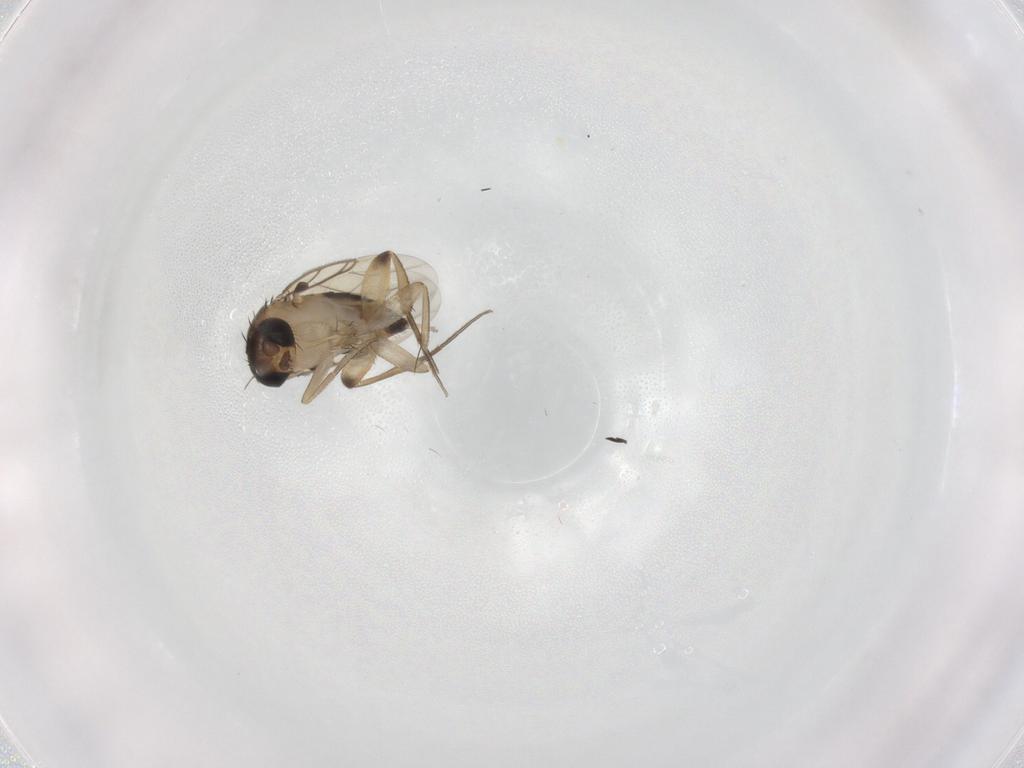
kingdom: Animalia
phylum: Arthropoda
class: Insecta
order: Diptera
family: Phoridae
